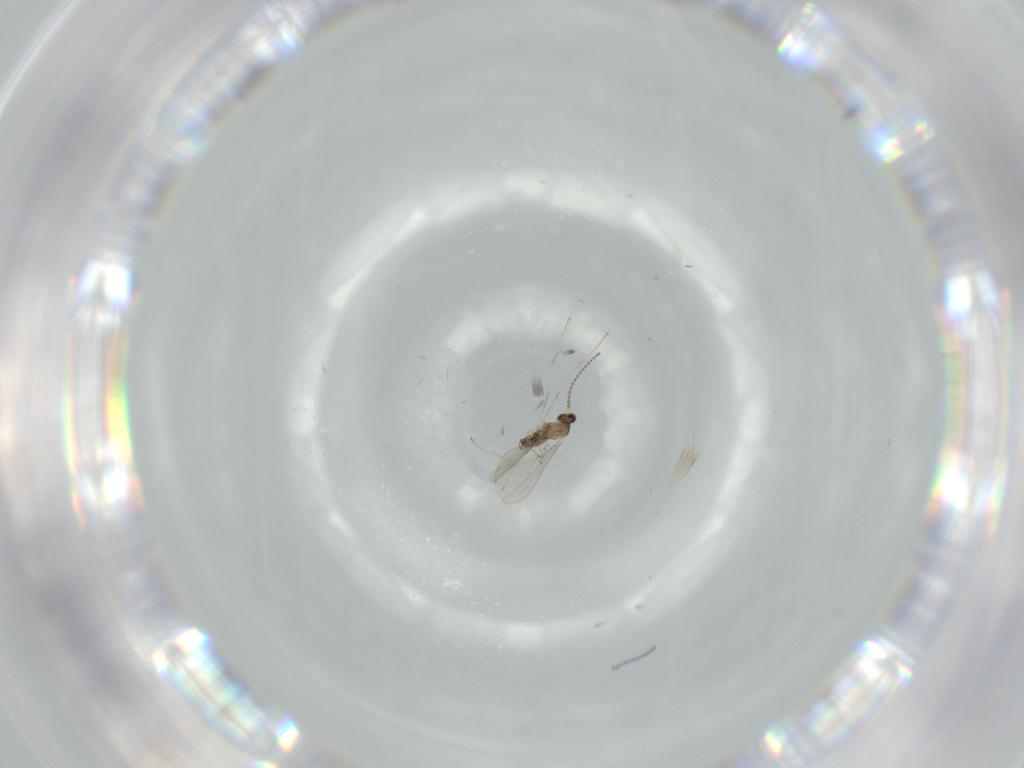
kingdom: Animalia
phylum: Arthropoda
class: Insecta
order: Diptera
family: Cecidomyiidae
